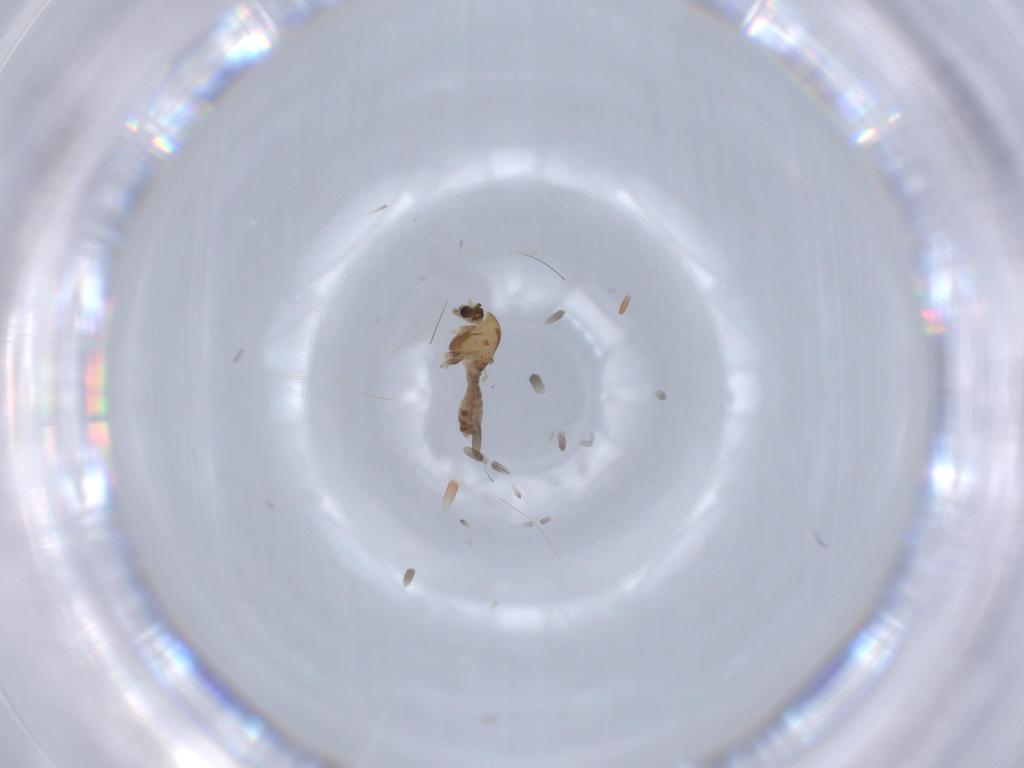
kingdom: Animalia
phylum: Arthropoda
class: Insecta
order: Diptera
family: Chironomidae
